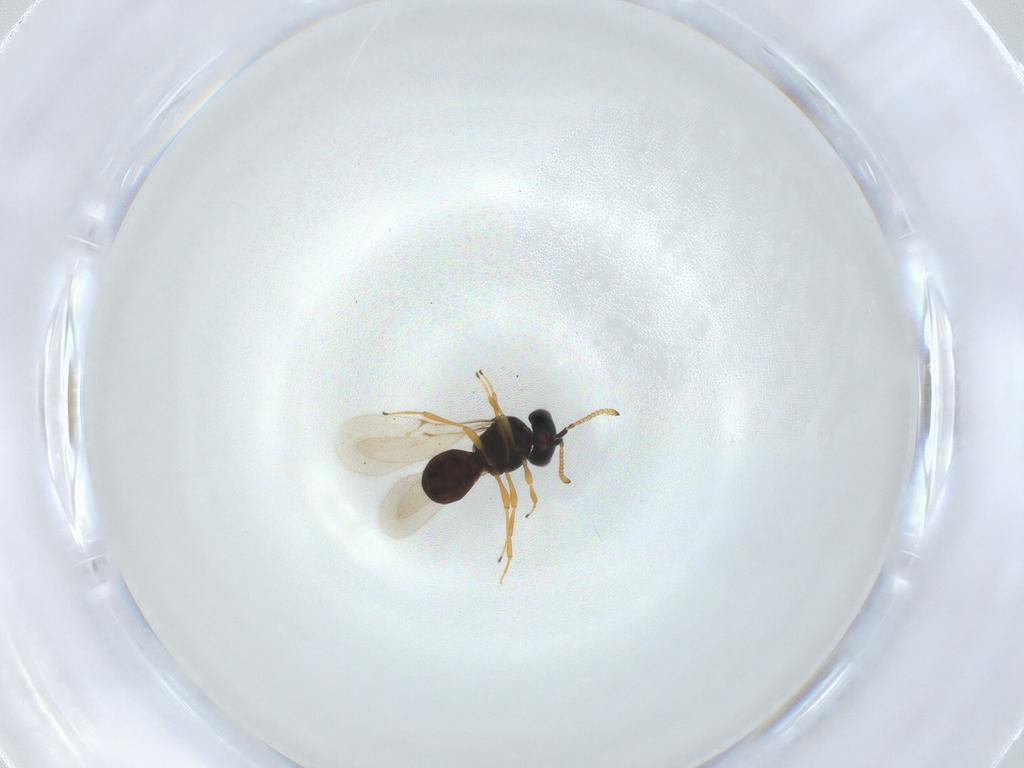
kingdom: Animalia
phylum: Arthropoda
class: Insecta
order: Hymenoptera
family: Scelionidae
